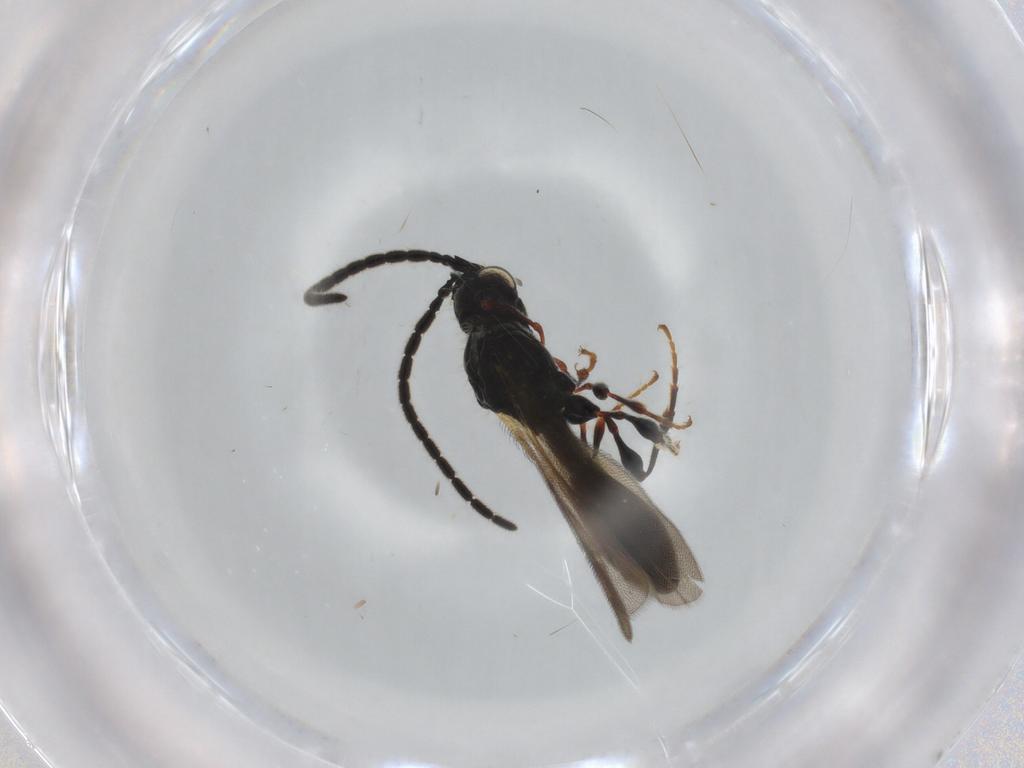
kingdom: Animalia
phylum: Arthropoda
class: Insecta
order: Hymenoptera
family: Diapriidae
